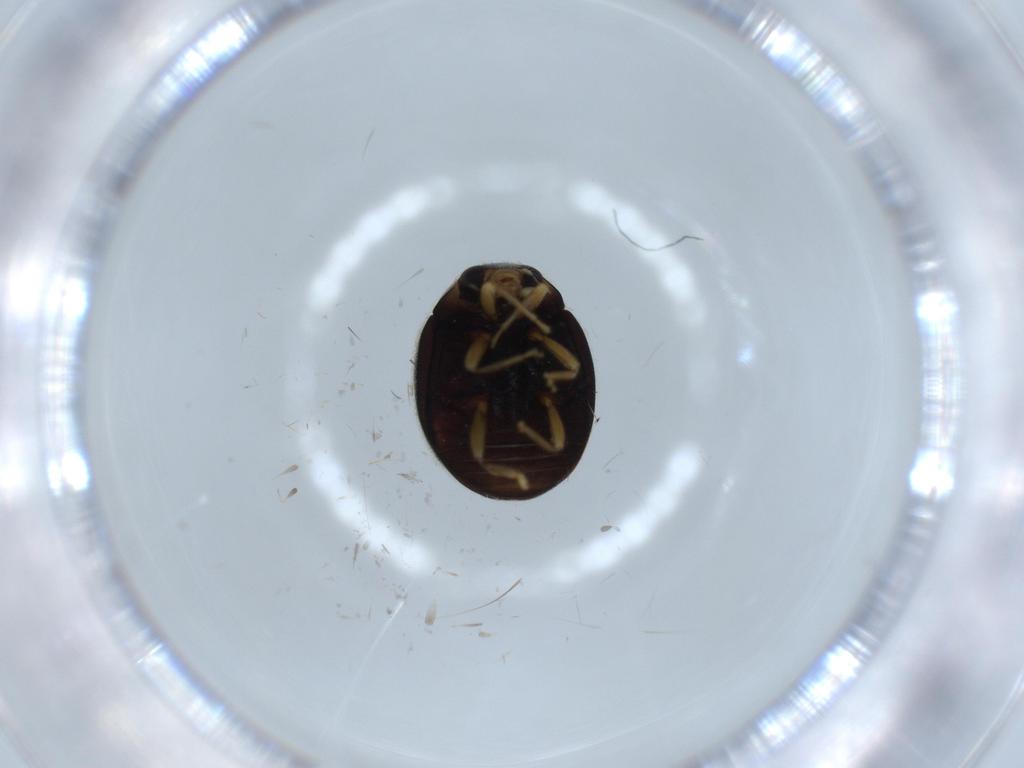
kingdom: Animalia
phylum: Arthropoda
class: Insecta
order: Coleoptera
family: Coccinellidae
